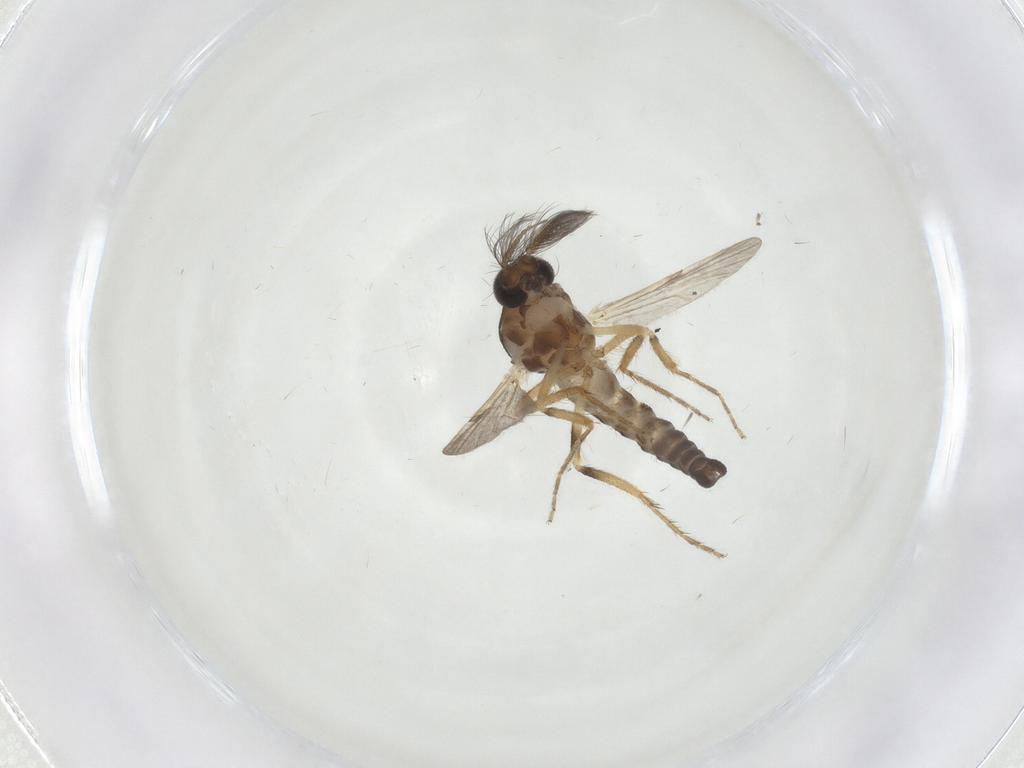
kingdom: Animalia
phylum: Arthropoda
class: Insecta
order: Diptera
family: Ceratopogonidae
